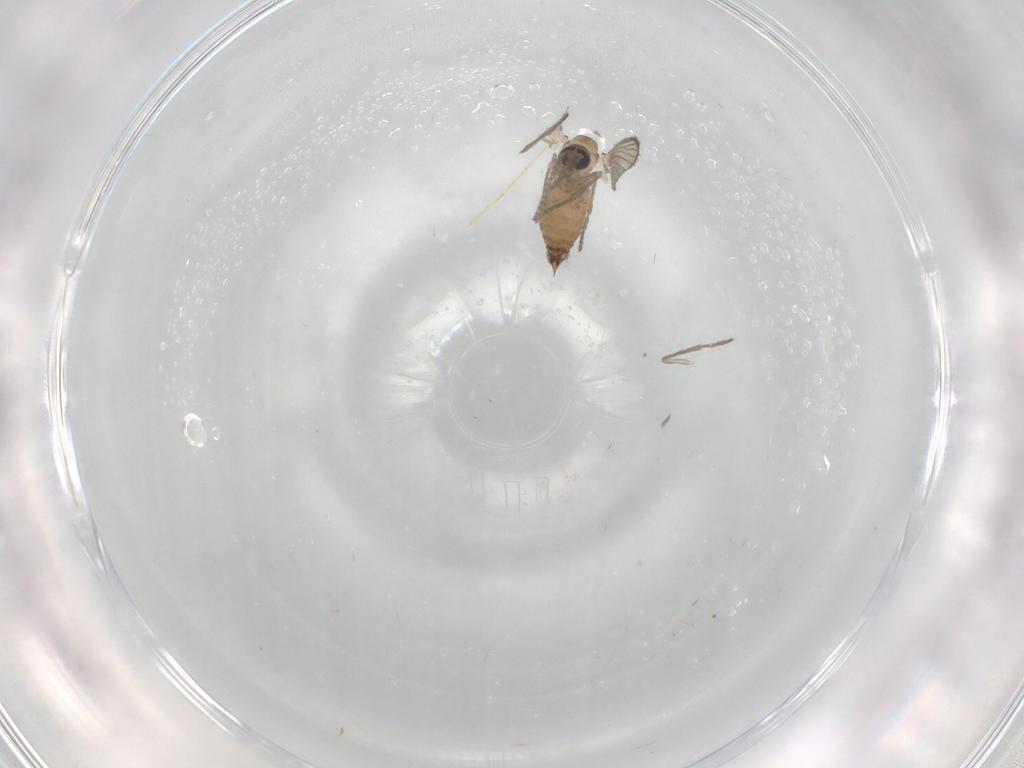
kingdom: Animalia
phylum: Arthropoda
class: Insecta
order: Diptera
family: Psychodidae
